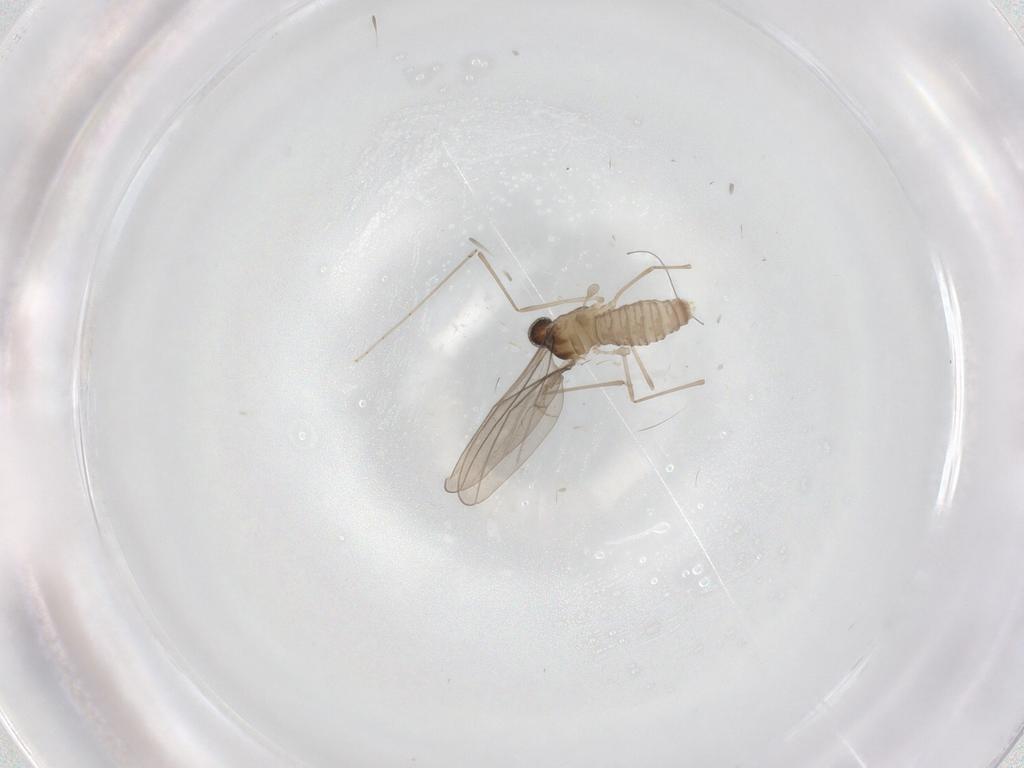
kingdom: Animalia
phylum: Arthropoda
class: Insecta
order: Diptera
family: Cecidomyiidae
